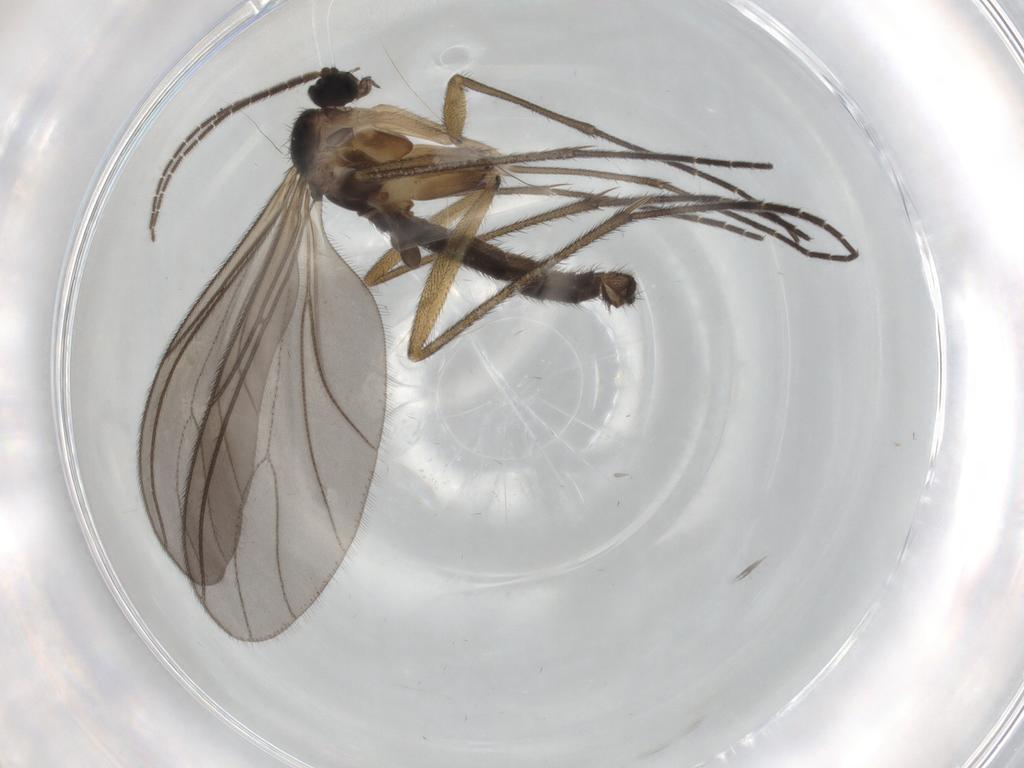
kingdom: Animalia
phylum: Arthropoda
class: Insecta
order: Diptera
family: Sciaridae
